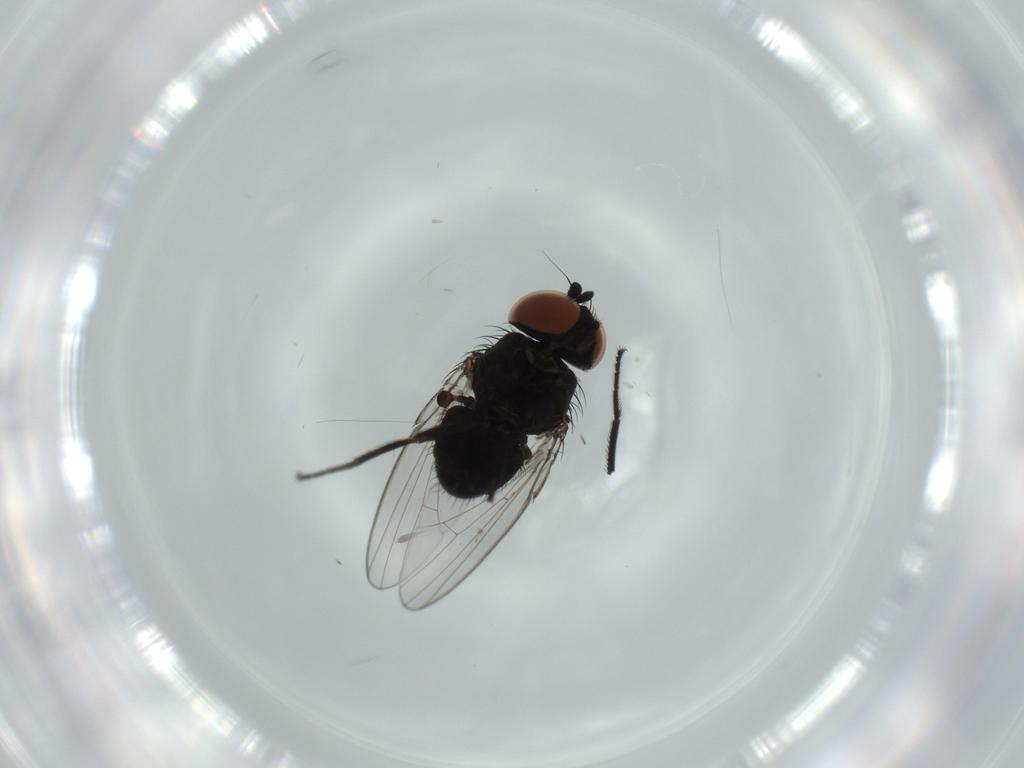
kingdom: Animalia
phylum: Arthropoda
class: Insecta
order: Diptera
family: Milichiidae
